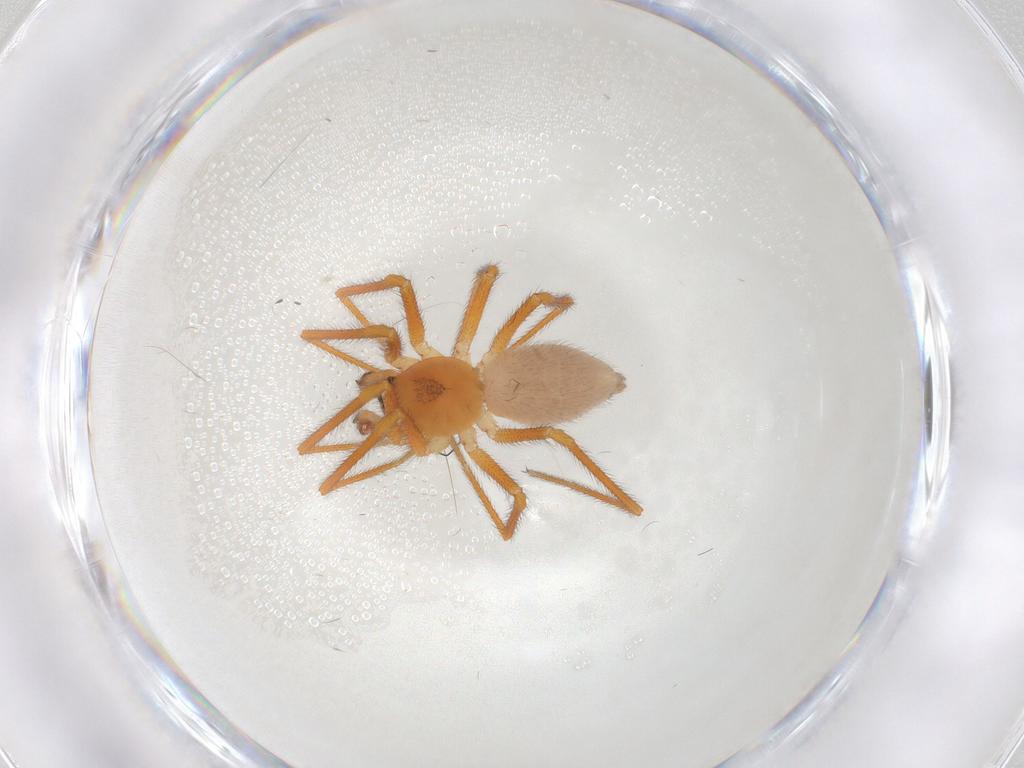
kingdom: Animalia
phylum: Arthropoda
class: Arachnida
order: Araneae
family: Linyphiidae
